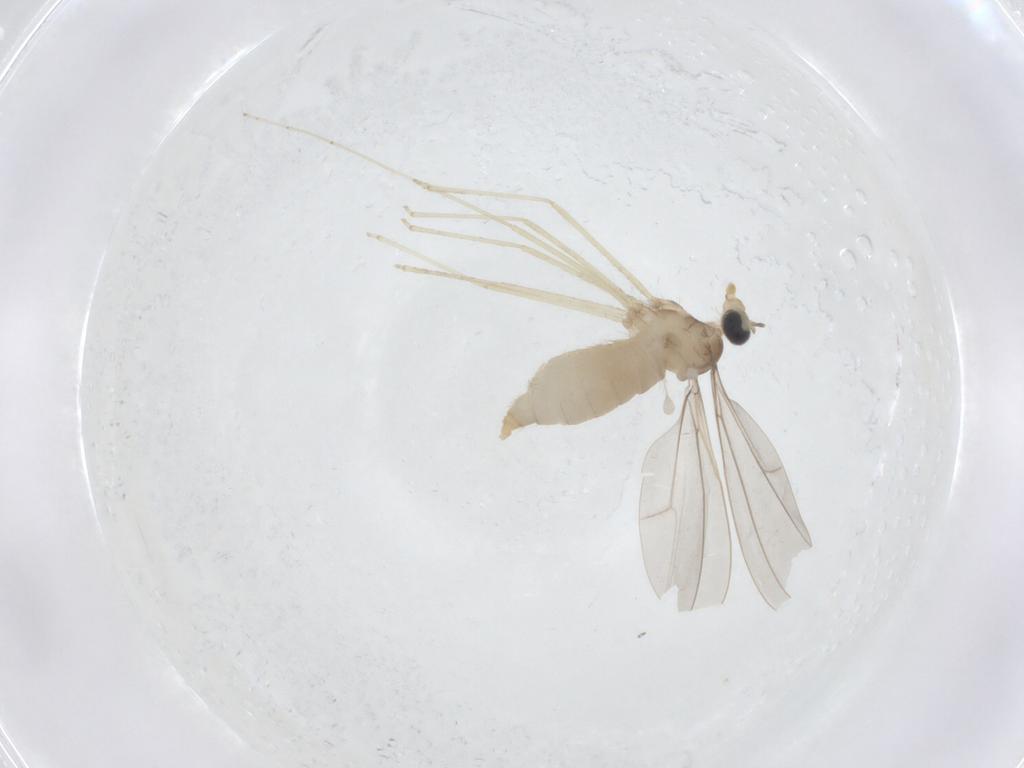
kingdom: Animalia
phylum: Arthropoda
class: Insecta
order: Diptera
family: Cecidomyiidae
